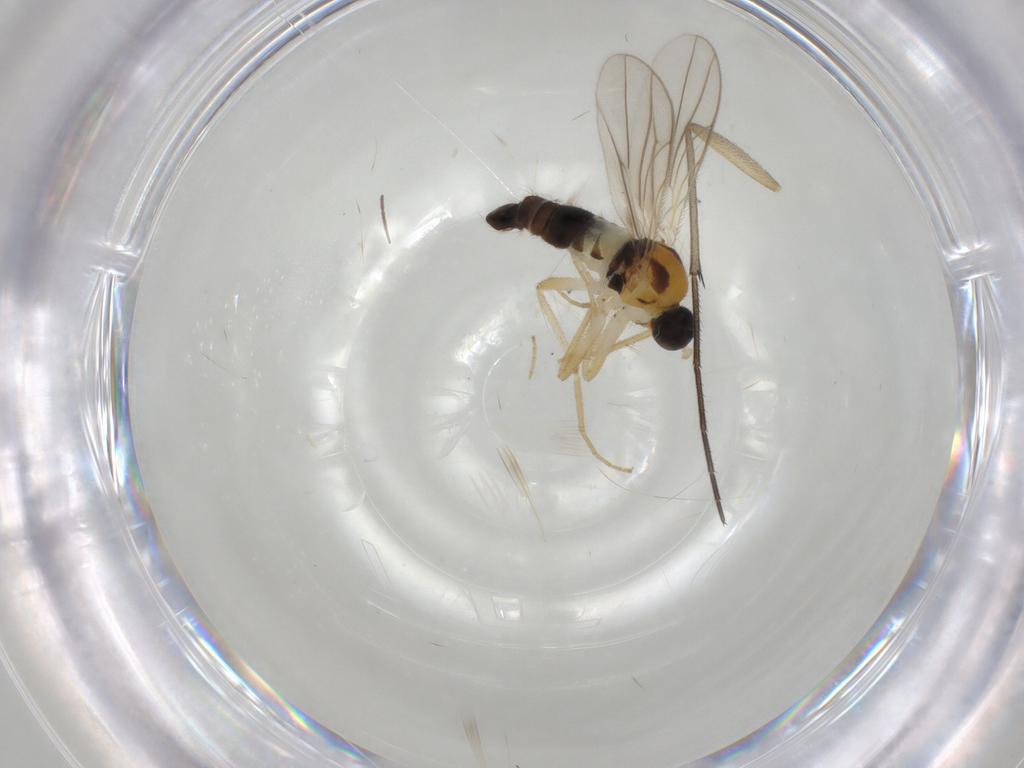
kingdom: Animalia
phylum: Arthropoda
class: Insecta
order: Diptera
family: Hybotidae
